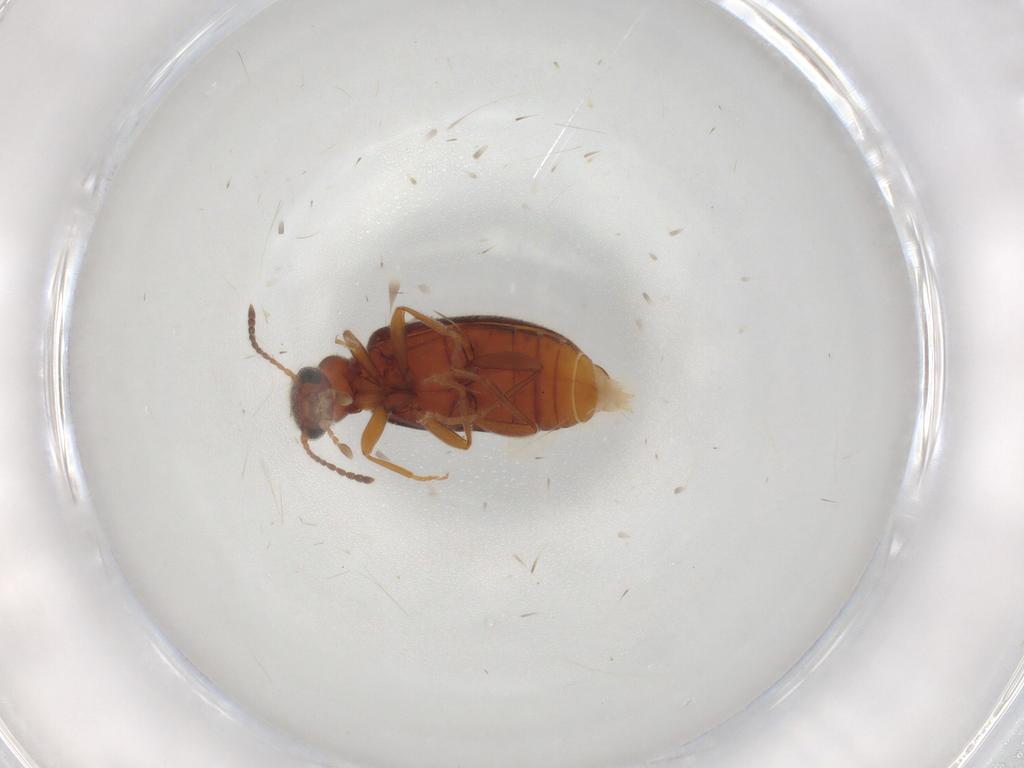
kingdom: Animalia
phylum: Arthropoda
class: Insecta
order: Coleoptera
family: Anthicidae
